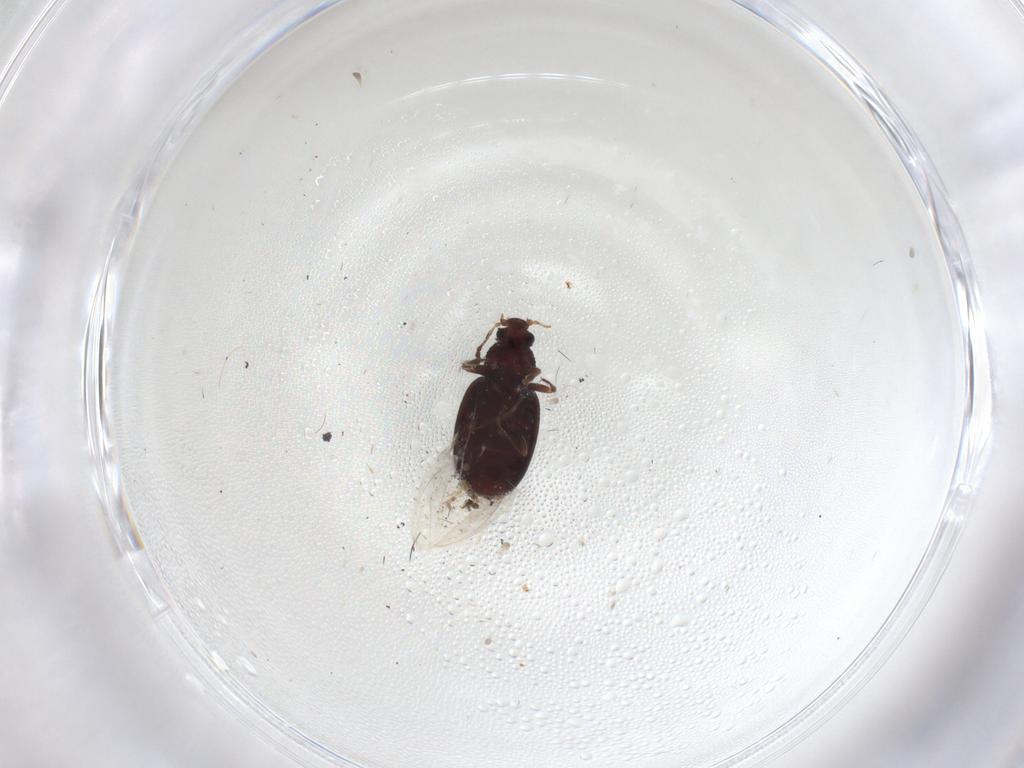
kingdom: Animalia
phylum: Arthropoda
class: Insecta
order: Coleoptera
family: Latridiidae
